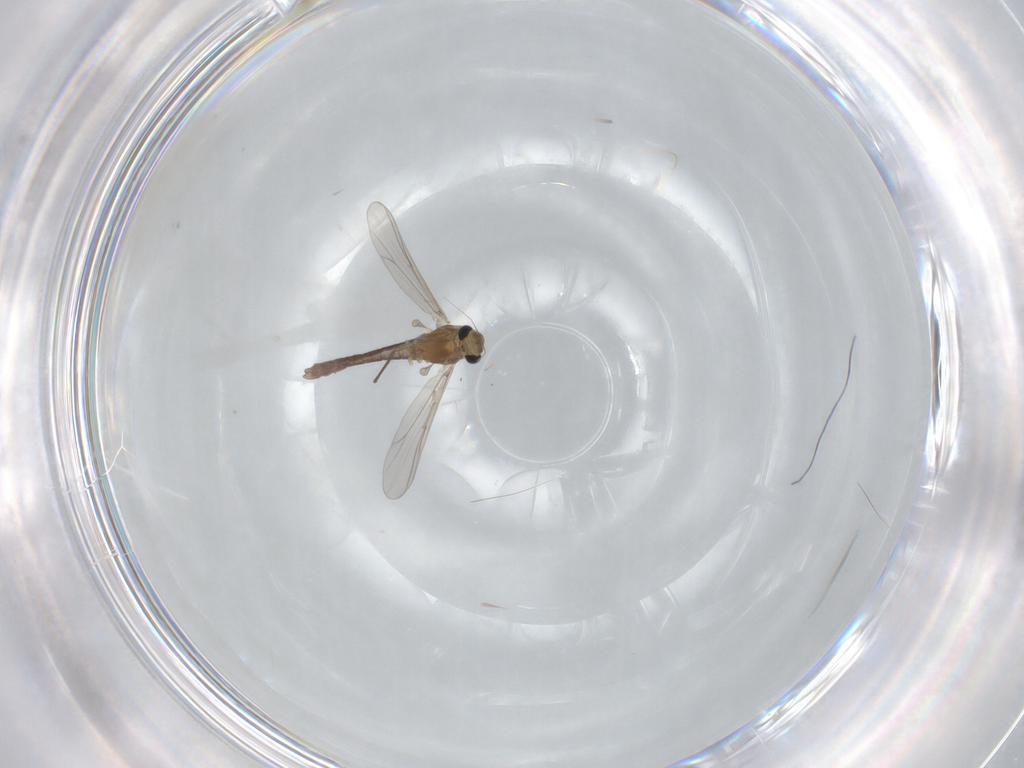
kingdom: Animalia
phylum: Arthropoda
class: Insecta
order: Diptera
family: Chironomidae
